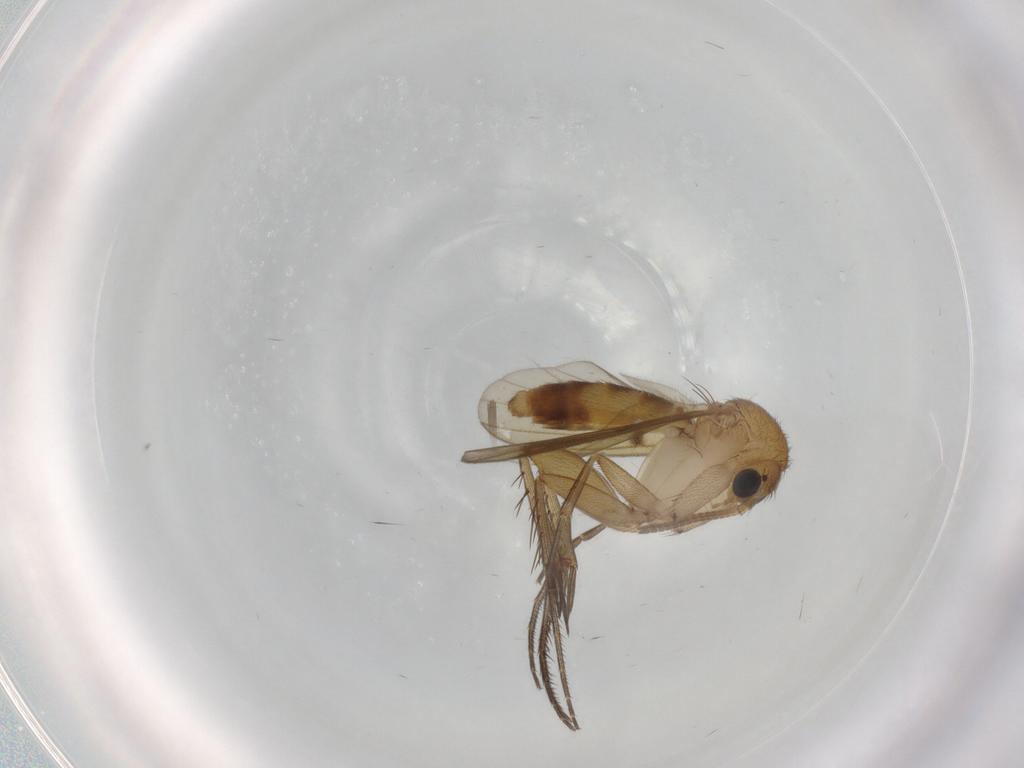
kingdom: Animalia
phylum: Arthropoda
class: Insecta
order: Diptera
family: Mycetophilidae
